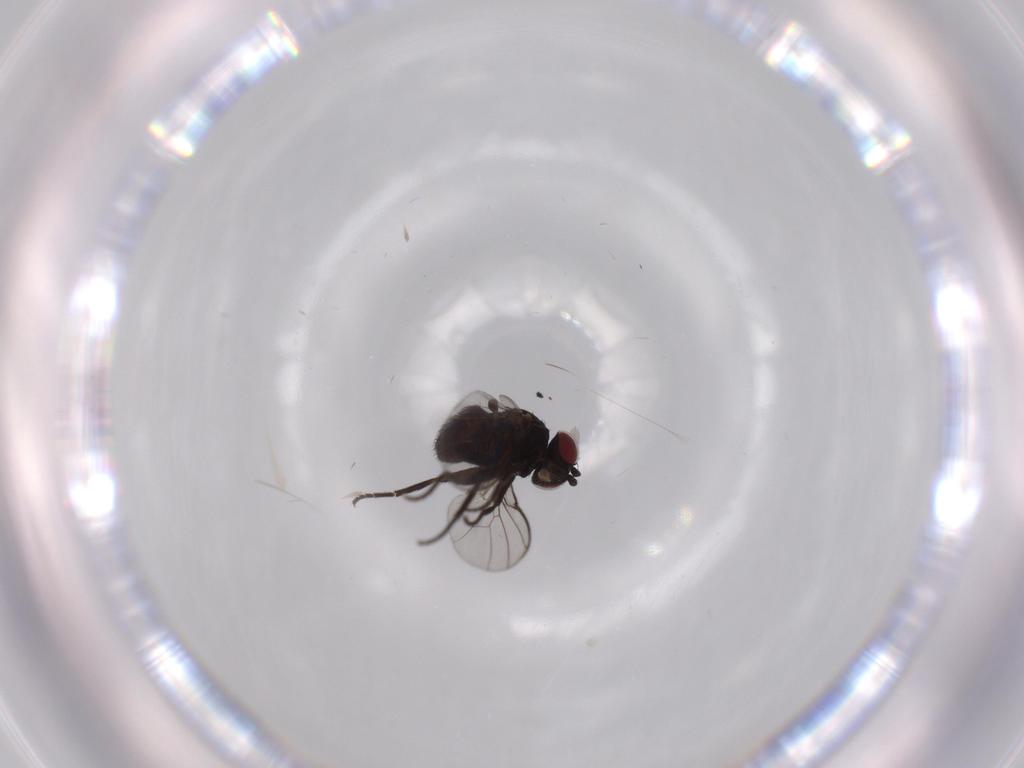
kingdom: Animalia
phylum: Arthropoda
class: Insecta
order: Diptera
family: Agromyzidae
